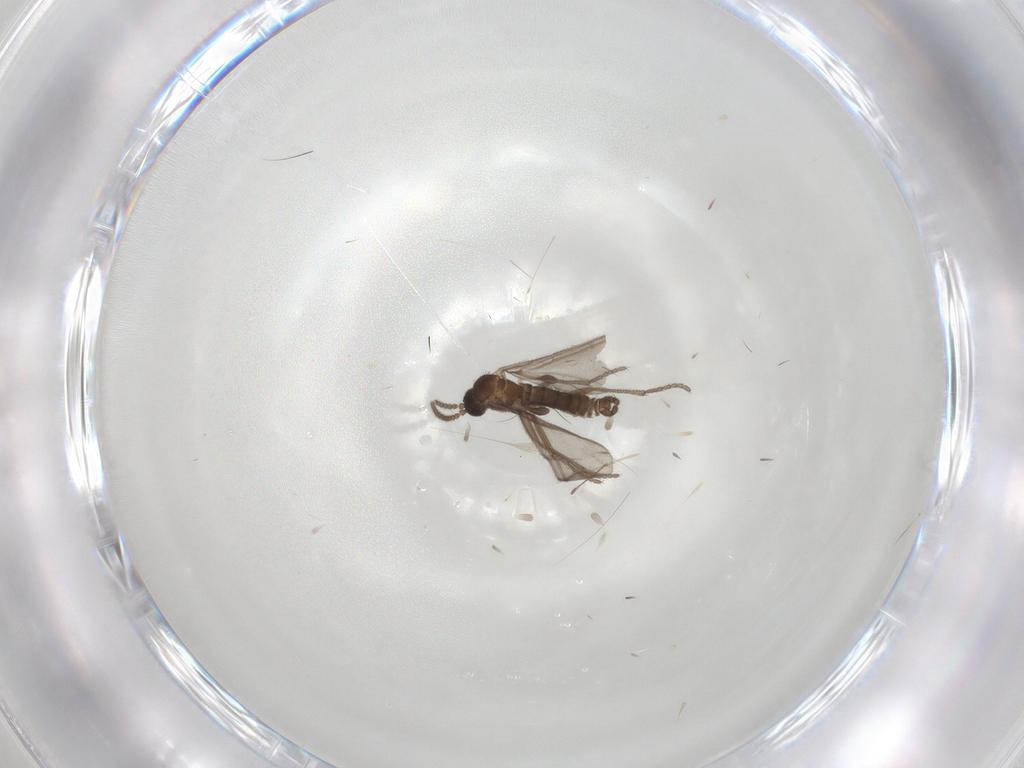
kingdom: Animalia
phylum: Arthropoda
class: Insecta
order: Diptera
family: Sciaridae
